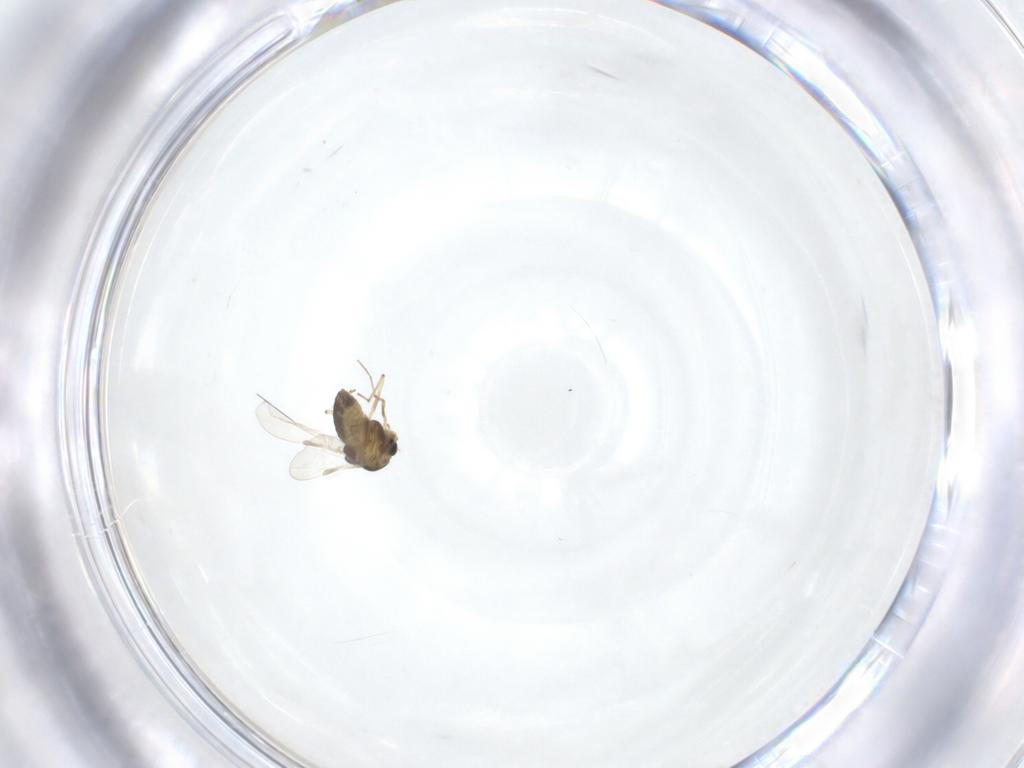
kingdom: Animalia
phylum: Arthropoda
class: Insecta
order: Diptera
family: Chironomidae
